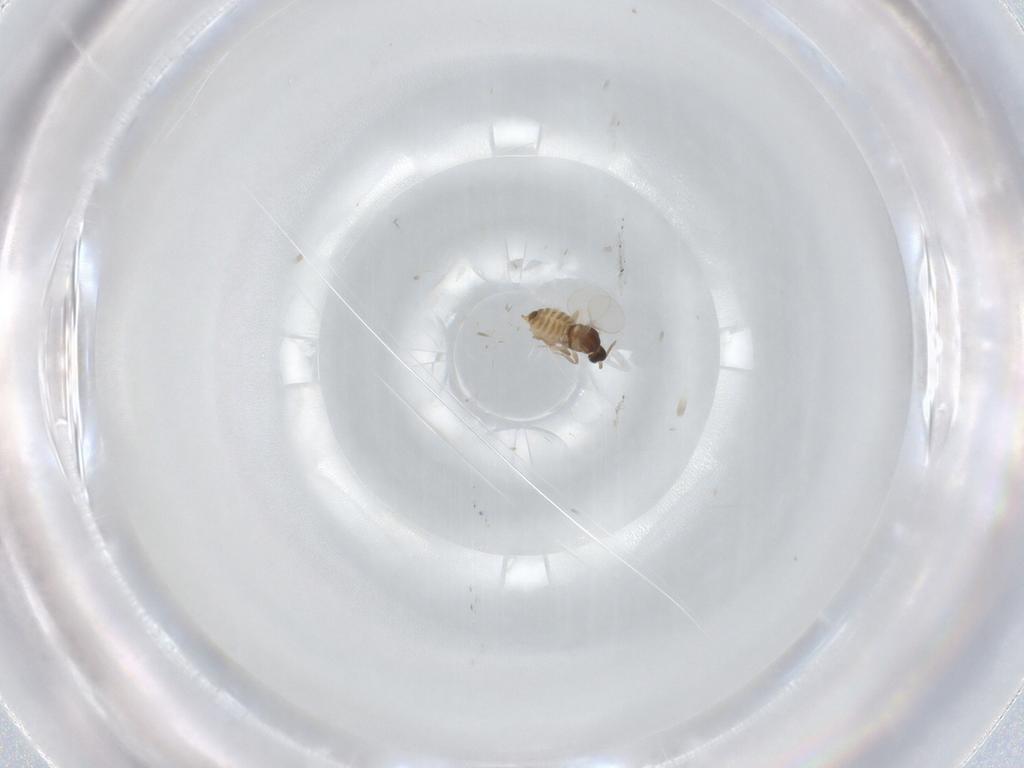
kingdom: Animalia
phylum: Arthropoda
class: Insecta
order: Diptera
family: Cecidomyiidae
